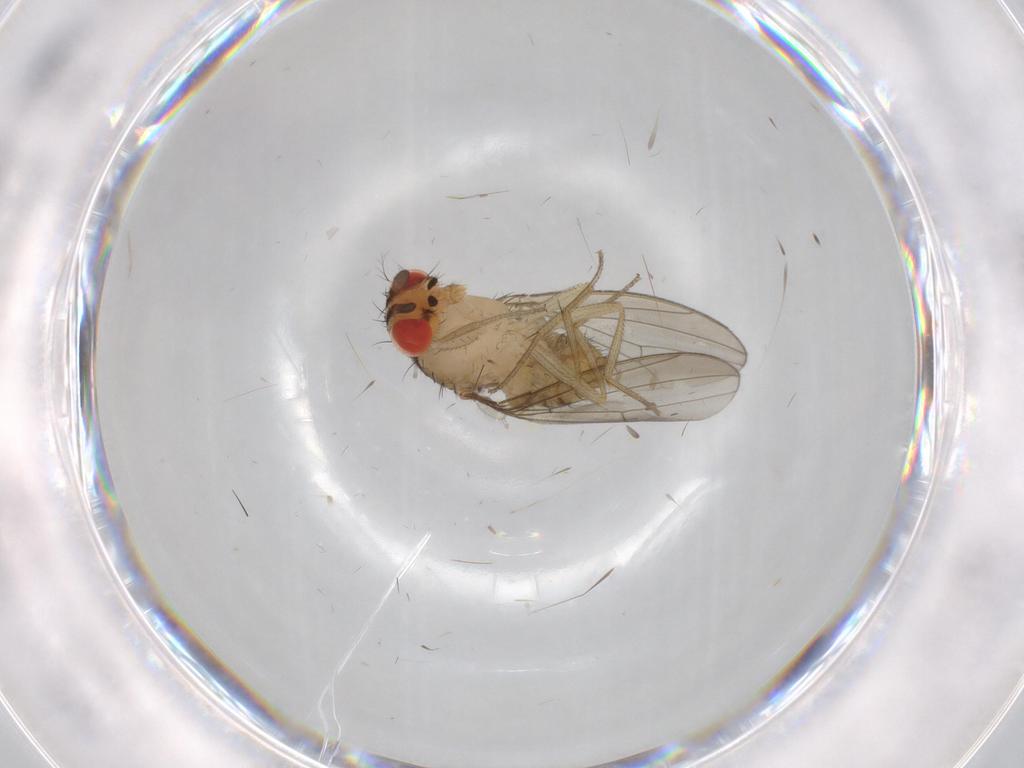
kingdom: Animalia
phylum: Arthropoda
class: Insecta
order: Diptera
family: Drosophilidae
